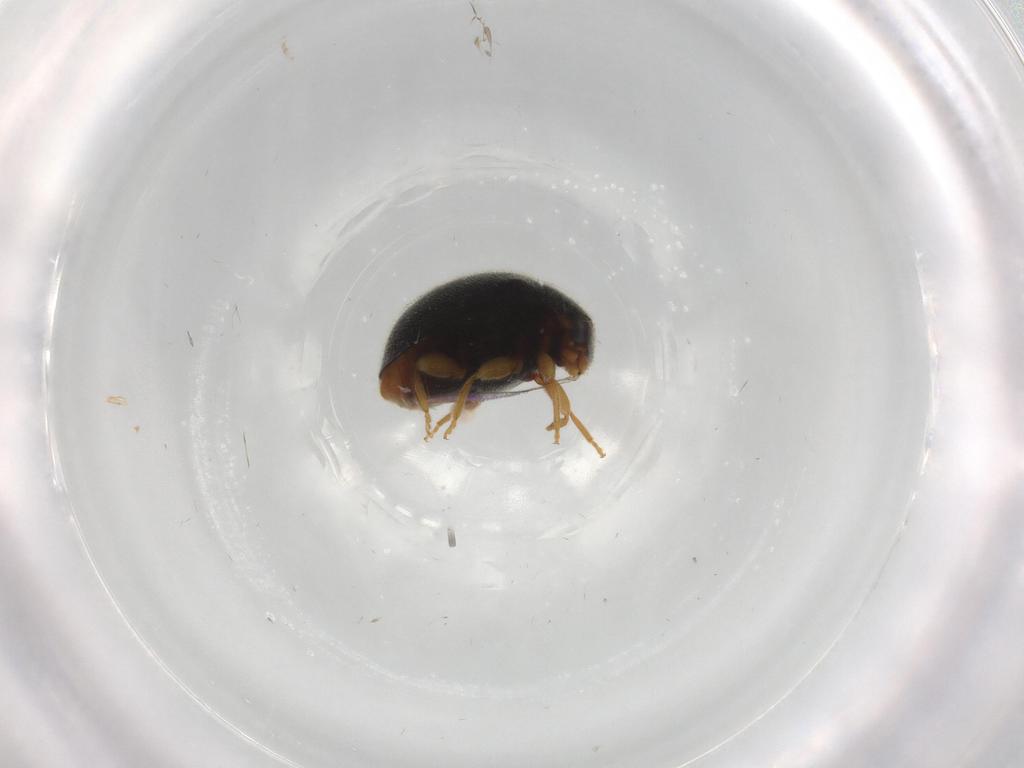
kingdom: Animalia
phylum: Arthropoda
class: Insecta
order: Coleoptera
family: Coccinellidae
